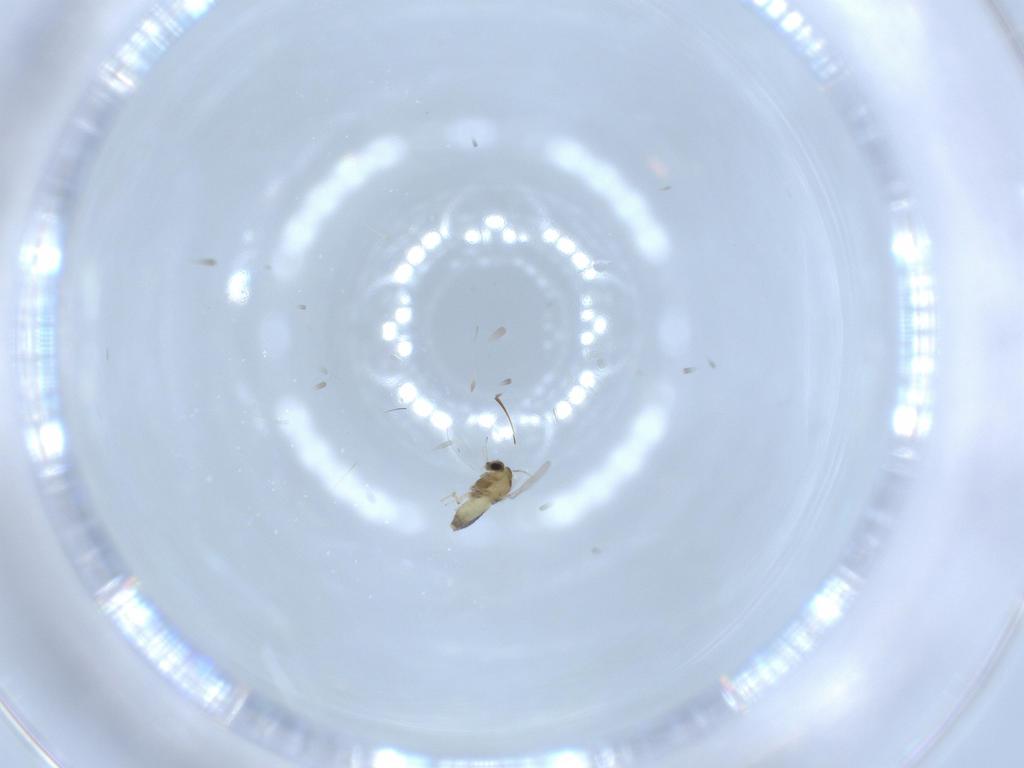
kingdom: Animalia
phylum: Arthropoda
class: Insecta
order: Diptera
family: Chironomidae
